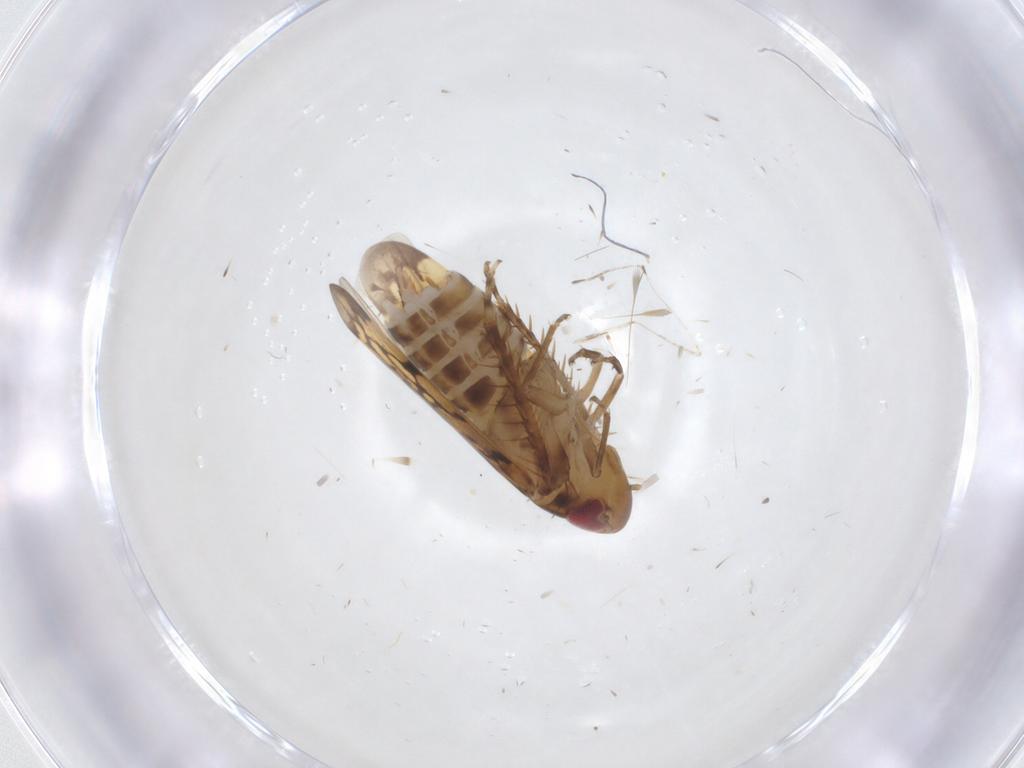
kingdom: Animalia
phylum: Arthropoda
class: Insecta
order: Hemiptera
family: Cicadellidae
